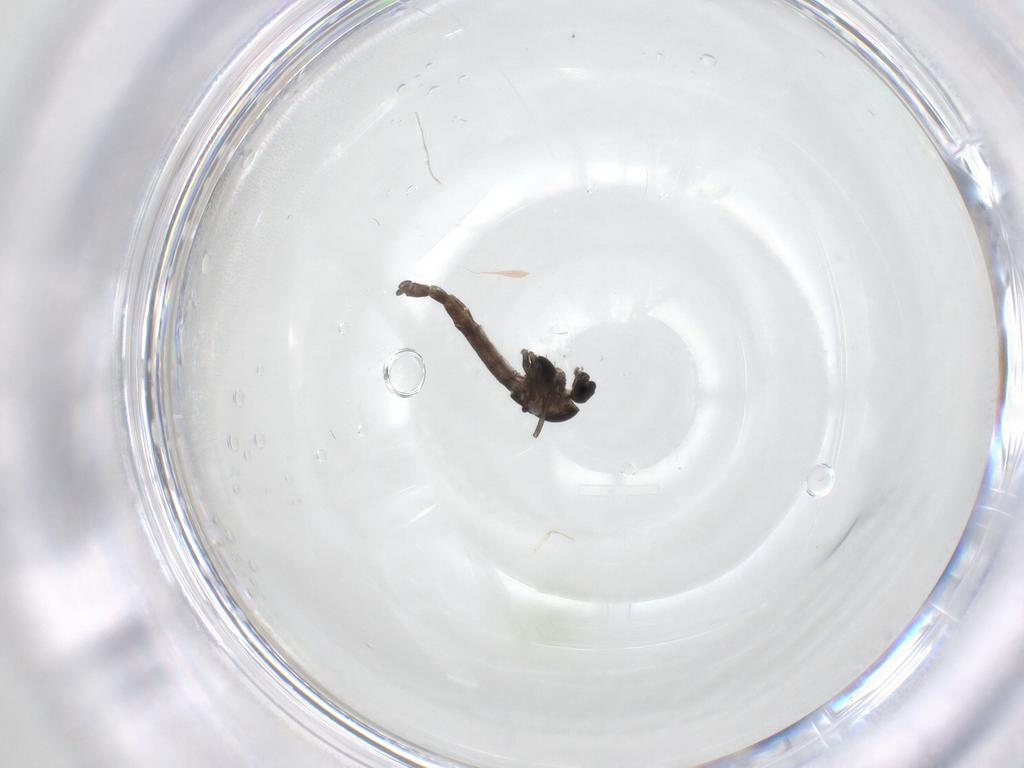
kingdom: Animalia
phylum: Arthropoda
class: Insecta
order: Diptera
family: Chironomidae
